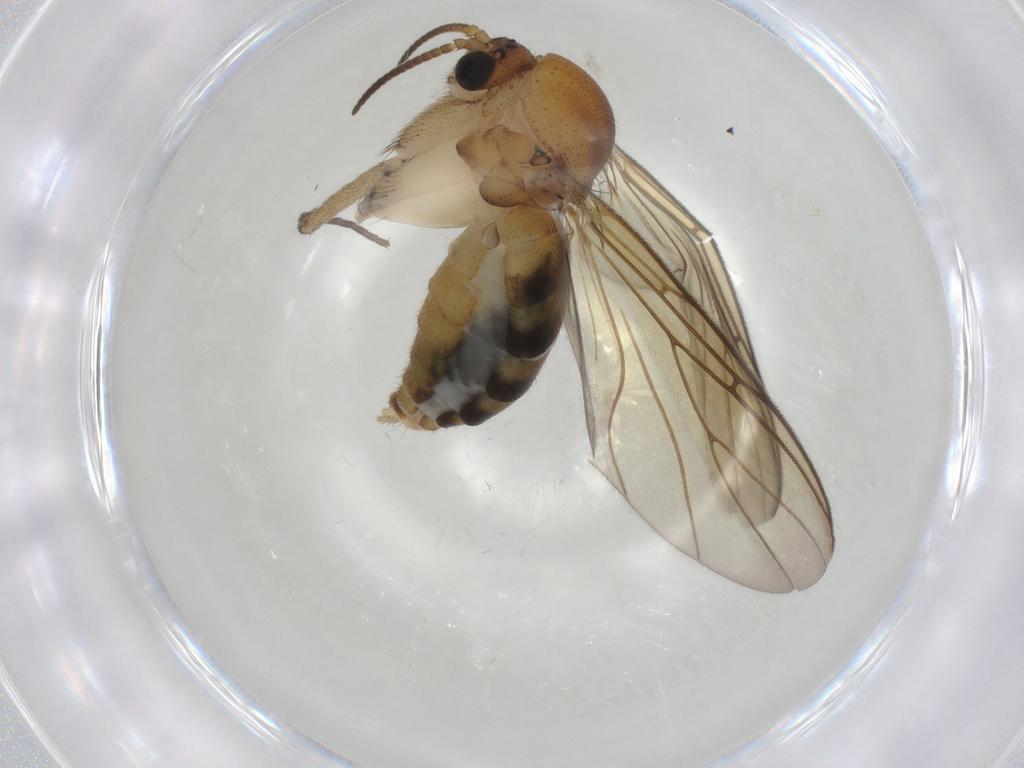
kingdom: Animalia
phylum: Arthropoda
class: Insecta
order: Diptera
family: Mycetophilidae
